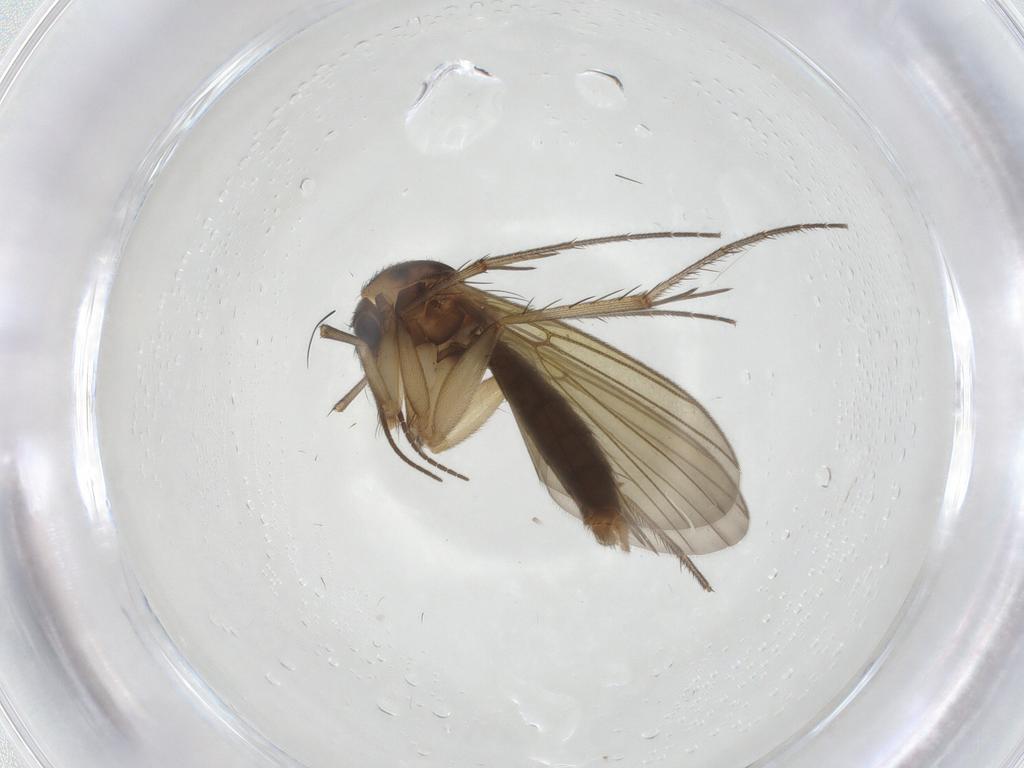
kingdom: Animalia
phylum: Arthropoda
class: Insecta
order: Diptera
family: Mycetophilidae
